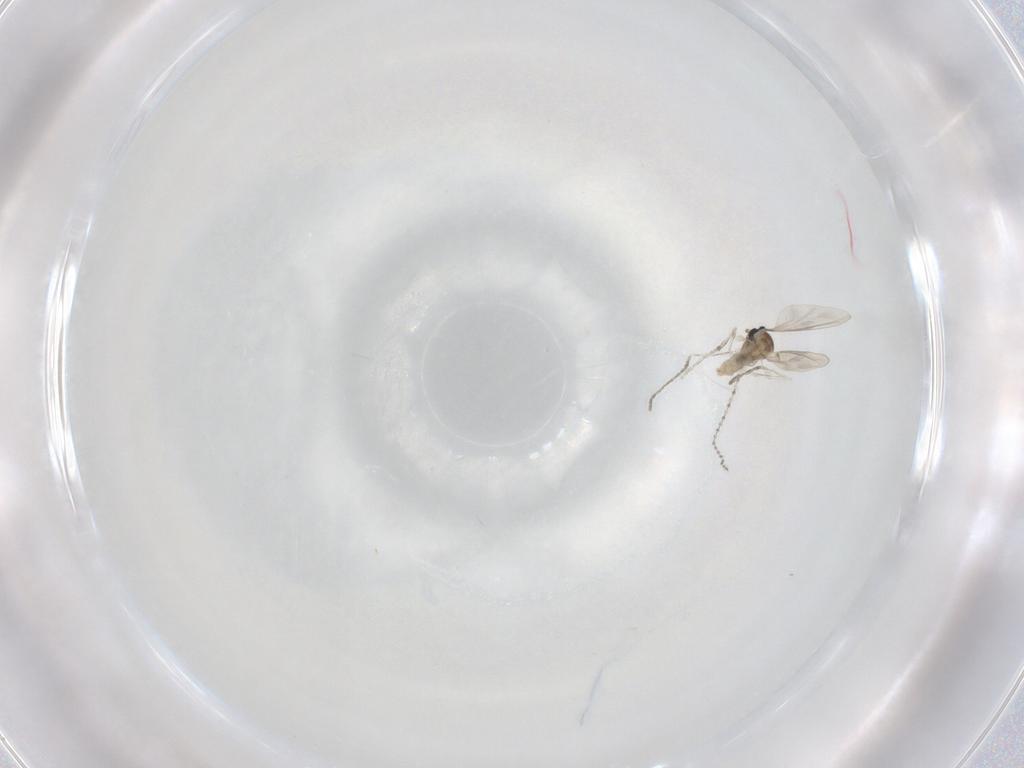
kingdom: Animalia
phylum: Arthropoda
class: Insecta
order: Diptera
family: Cecidomyiidae
